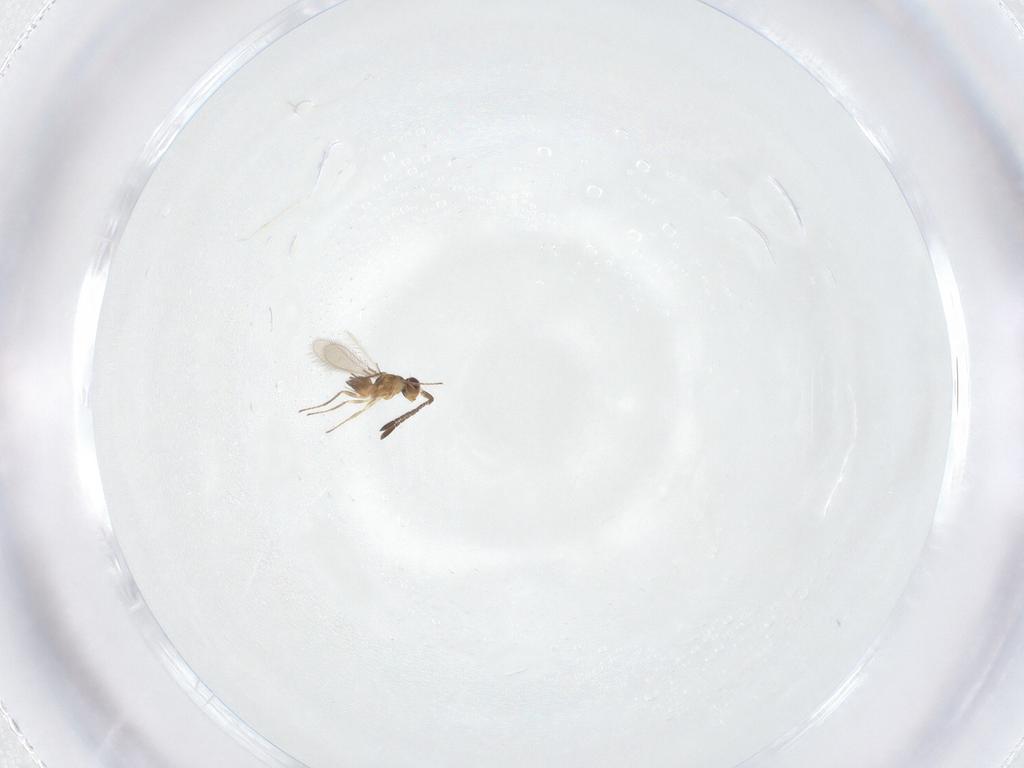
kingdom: Animalia
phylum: Arthropoda
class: Insecta
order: Hymenoptera
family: Mymaridae
